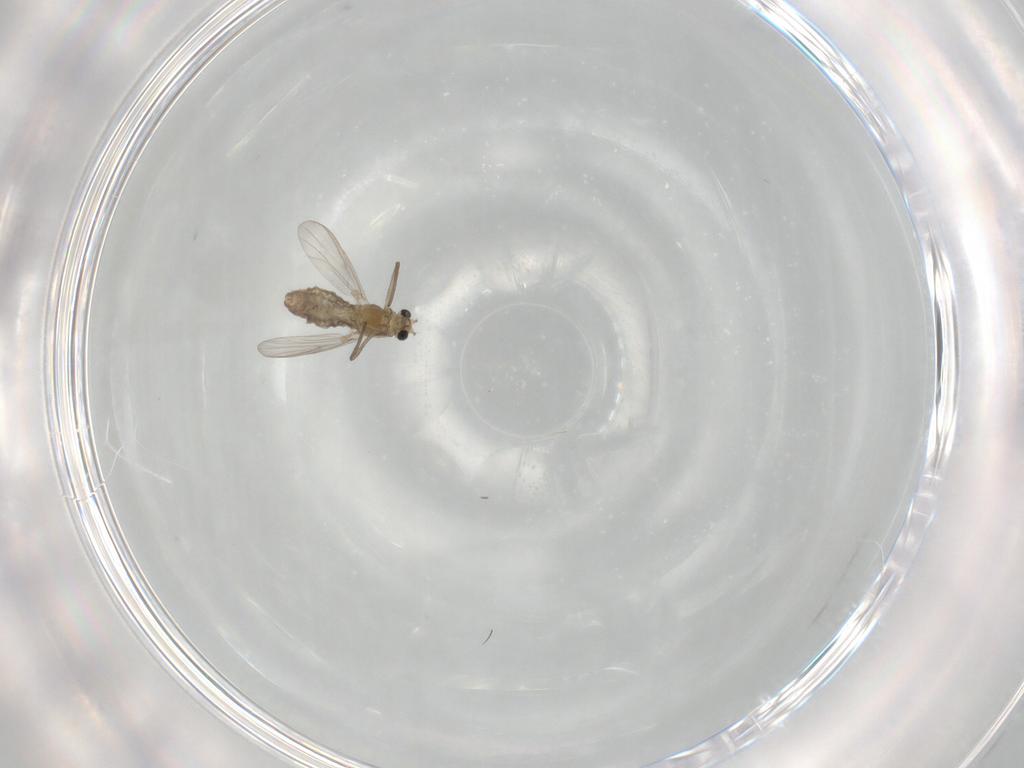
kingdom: Animalia
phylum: Arthropoda
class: Insecta
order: Diptera
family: Chironomidae
